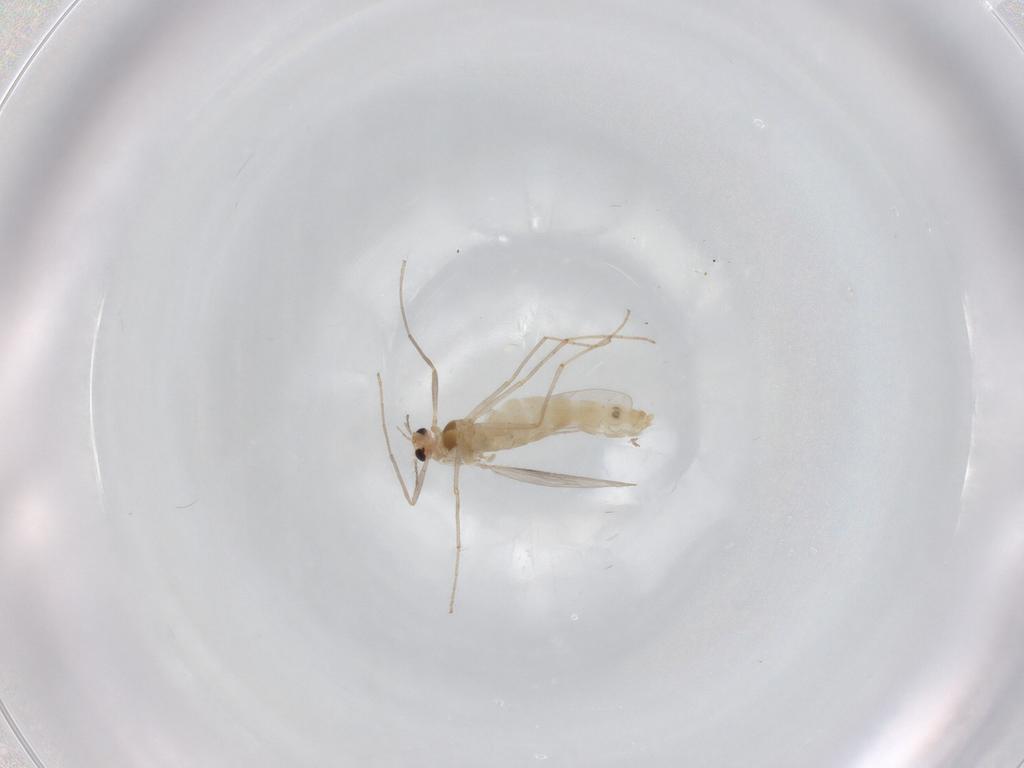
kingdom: Animalia
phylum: Arthropoda
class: Insecta
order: Diptera
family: Chironomidae
